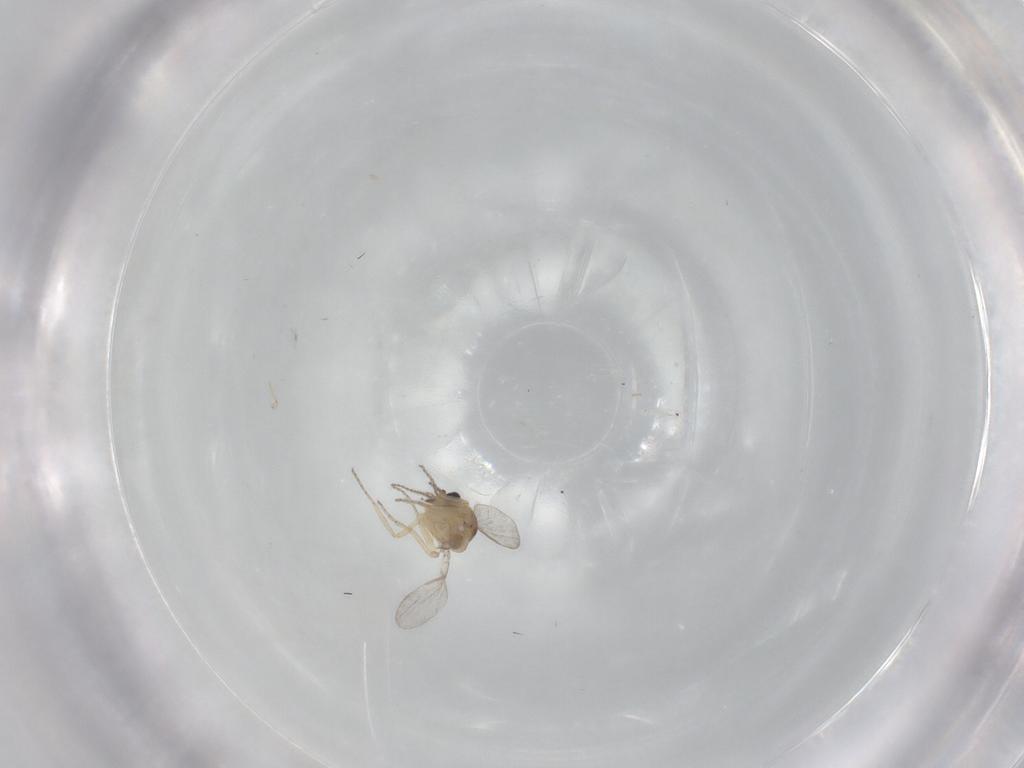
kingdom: Animalia
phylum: Arthropoda
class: Insecta
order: Diptera
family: Ceratopogonidae
